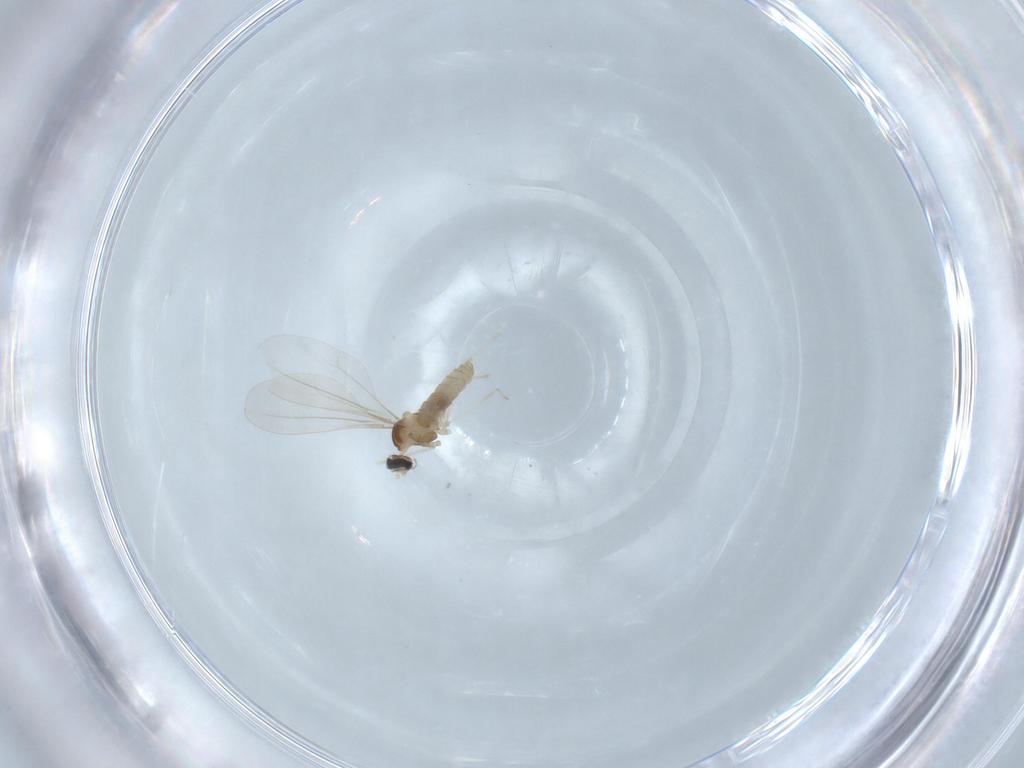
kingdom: Animalia
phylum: Arthropoda
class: Insecta
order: Diptera
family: Cecidomyiidae
